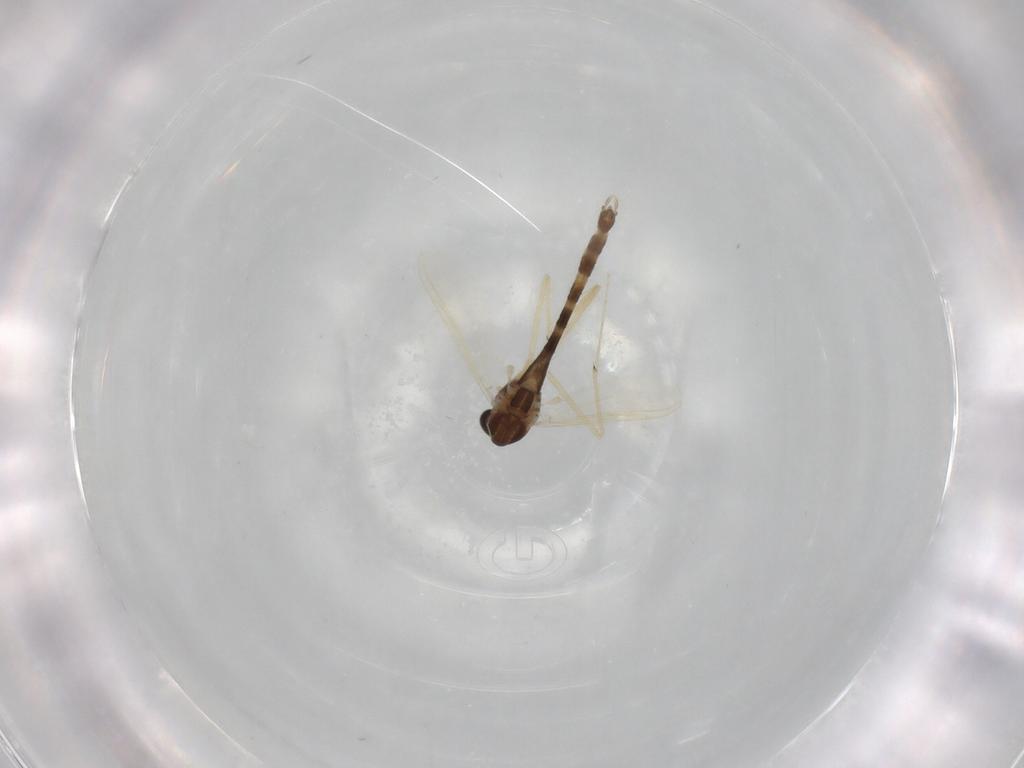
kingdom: Animalia
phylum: Arthropoda
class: Insecta
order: Diptera
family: Chironomidae
